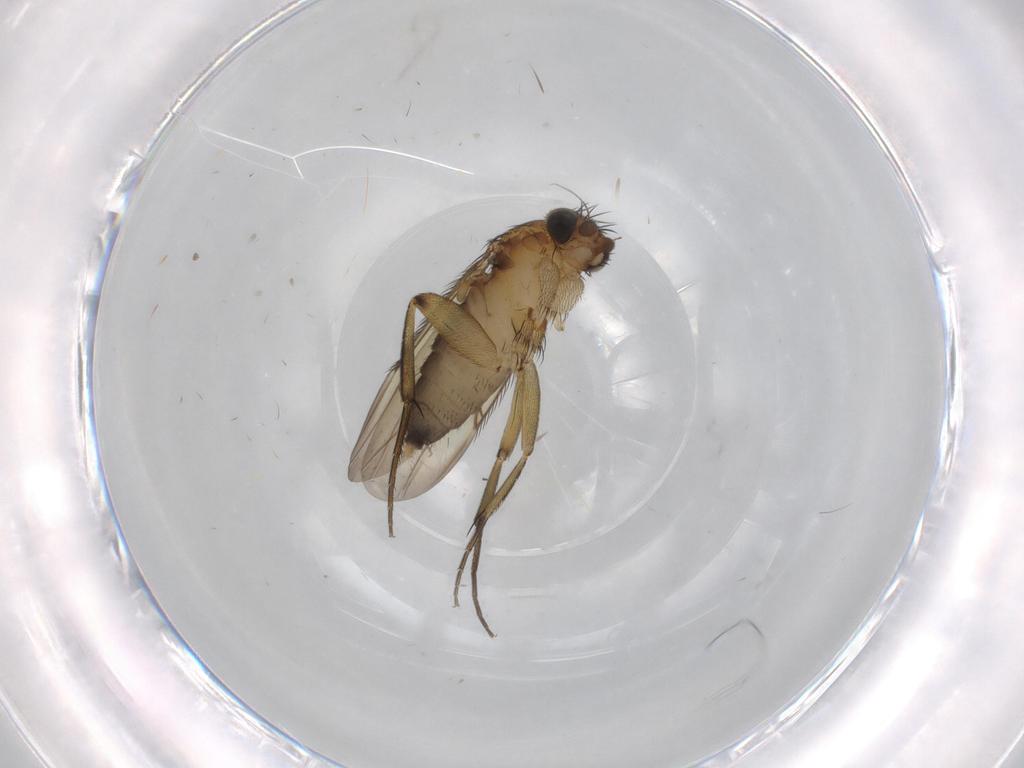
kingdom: Animalia
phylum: Arthropoda
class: Insecta
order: Diptera
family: Phoridae
